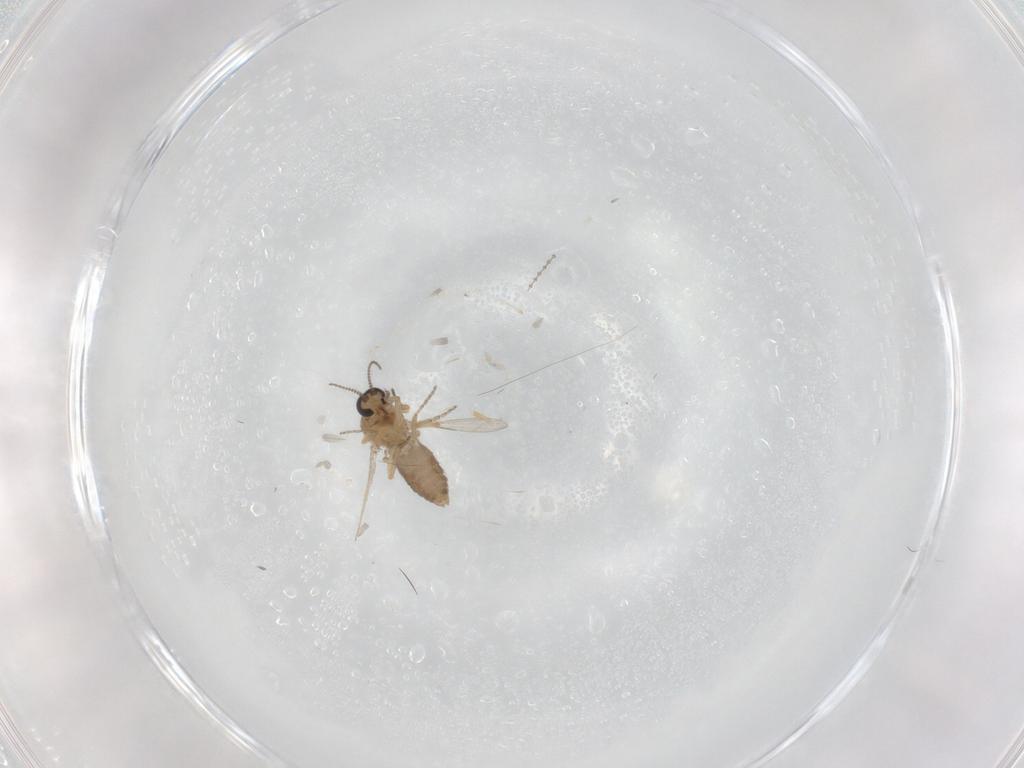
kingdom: Animalia
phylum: Arthropoda
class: Insecta
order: Diptera
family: Ceratopogonidae
